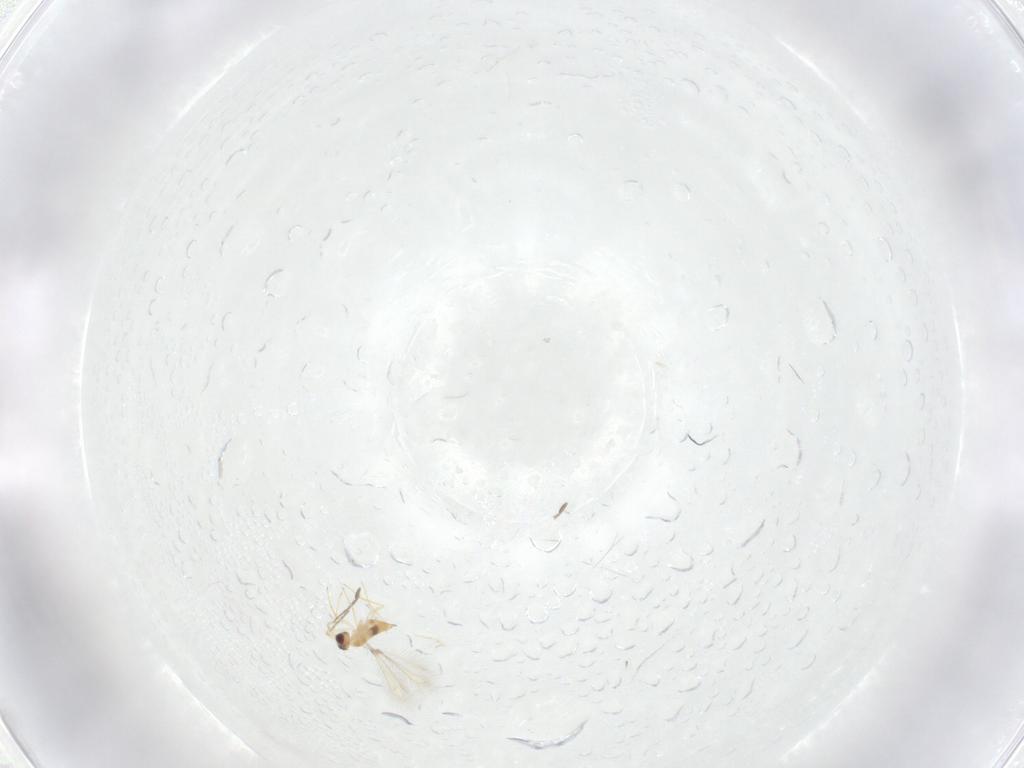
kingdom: Animalia
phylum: Arthropoda
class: Insecta
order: Hymenoptera
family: Mymaridae
